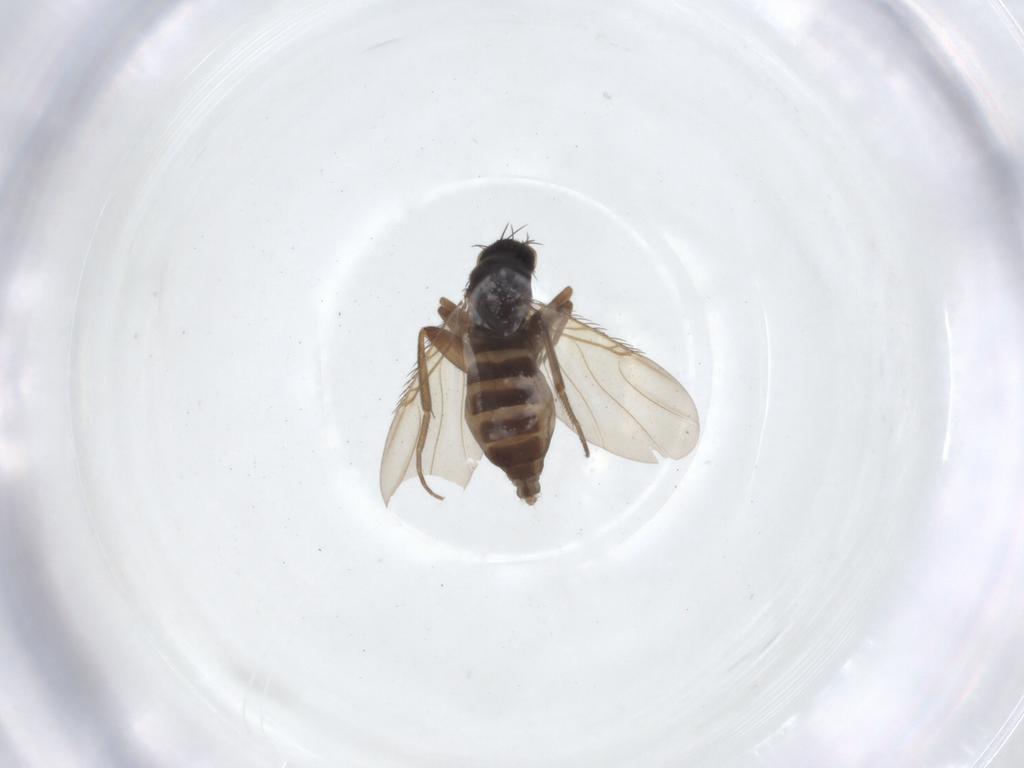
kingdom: Animalia
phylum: Arthropoda
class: Insecta
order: Diptera
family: Phoridae
